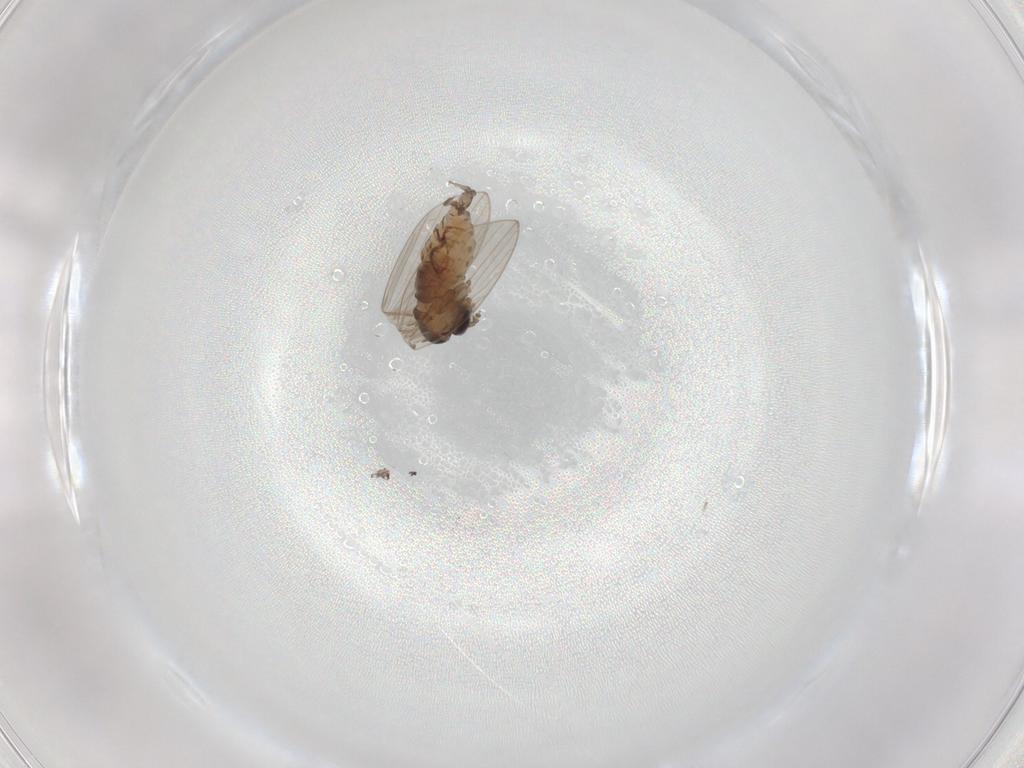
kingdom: Animalia
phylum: Arthropoda
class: Insecta
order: Diptera
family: Psychodidae
